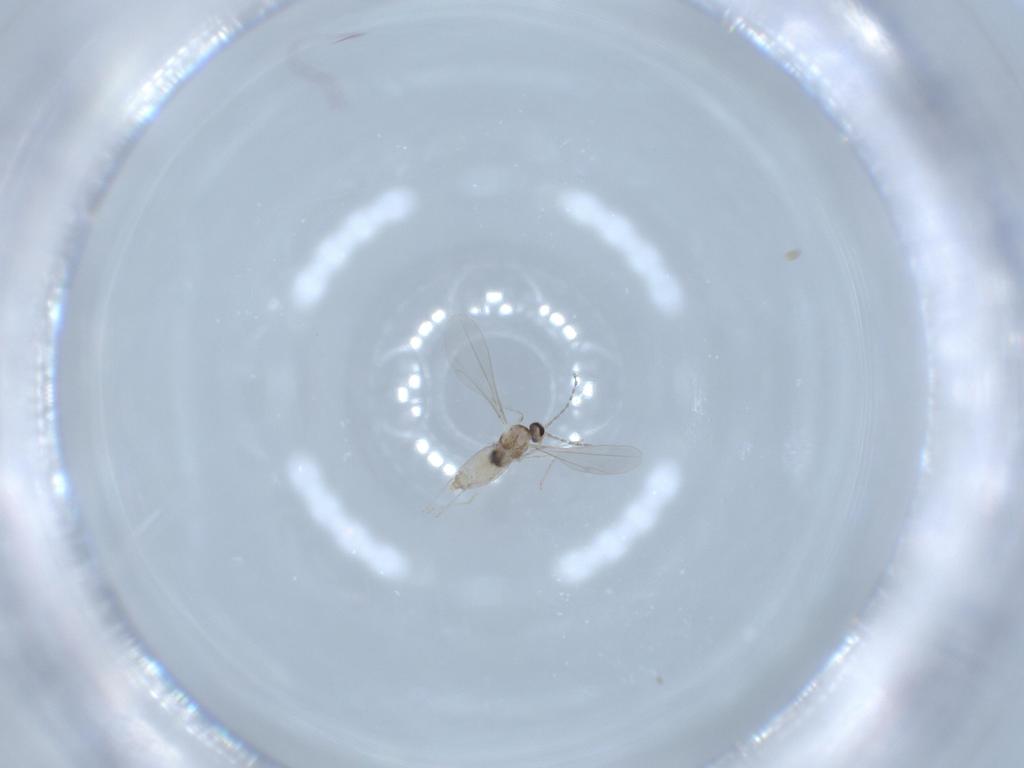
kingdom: Animalia
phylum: Arthropoda
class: Insecta
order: Diptera
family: Cecidomyiidae
